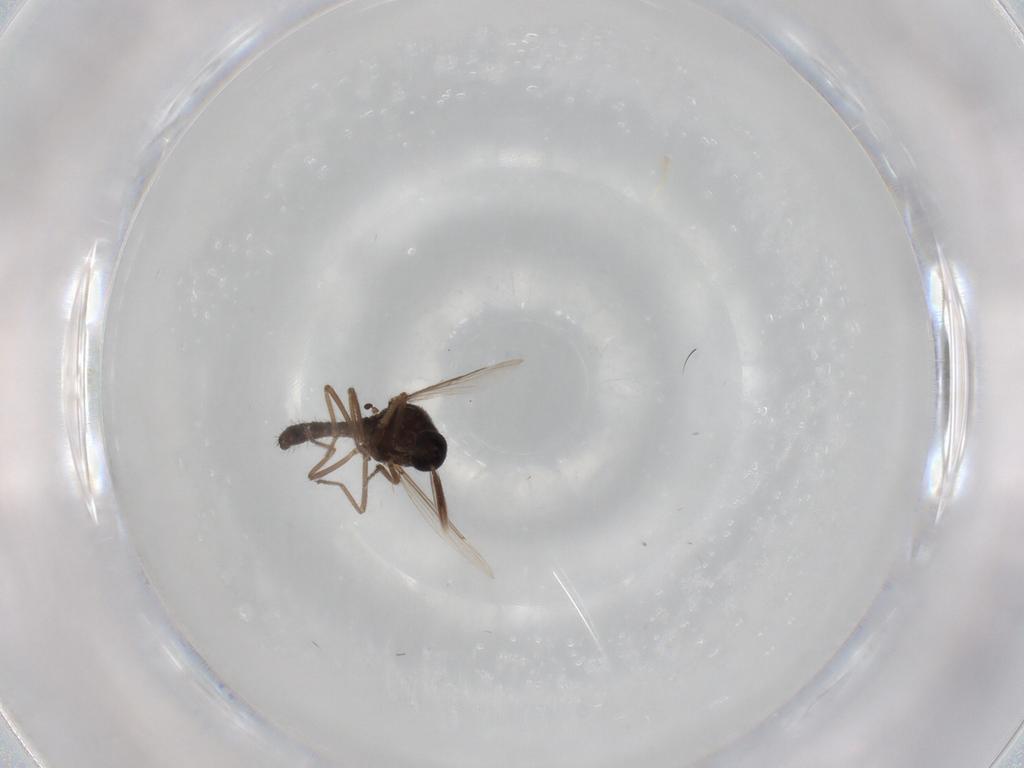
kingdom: Animalia
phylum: Arthropoda
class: Insecta
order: Diptera
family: Ceratopogonidae
